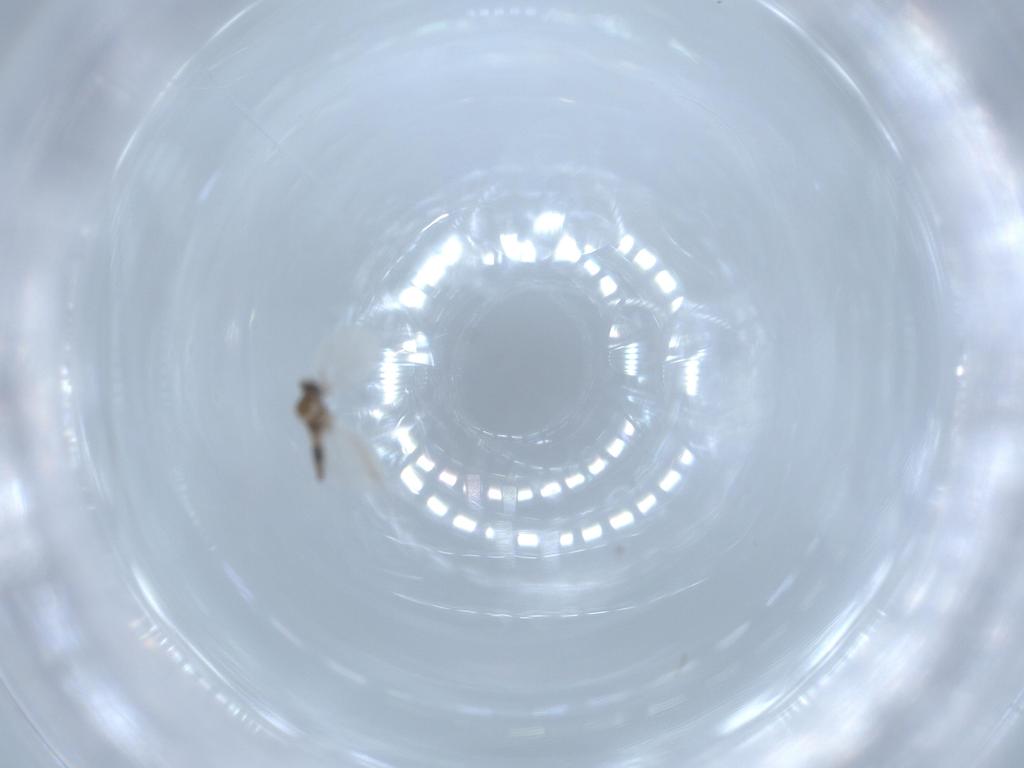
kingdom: Animalia
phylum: Arthropoda
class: Insecta
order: Diptera
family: Cecidomyiidae
